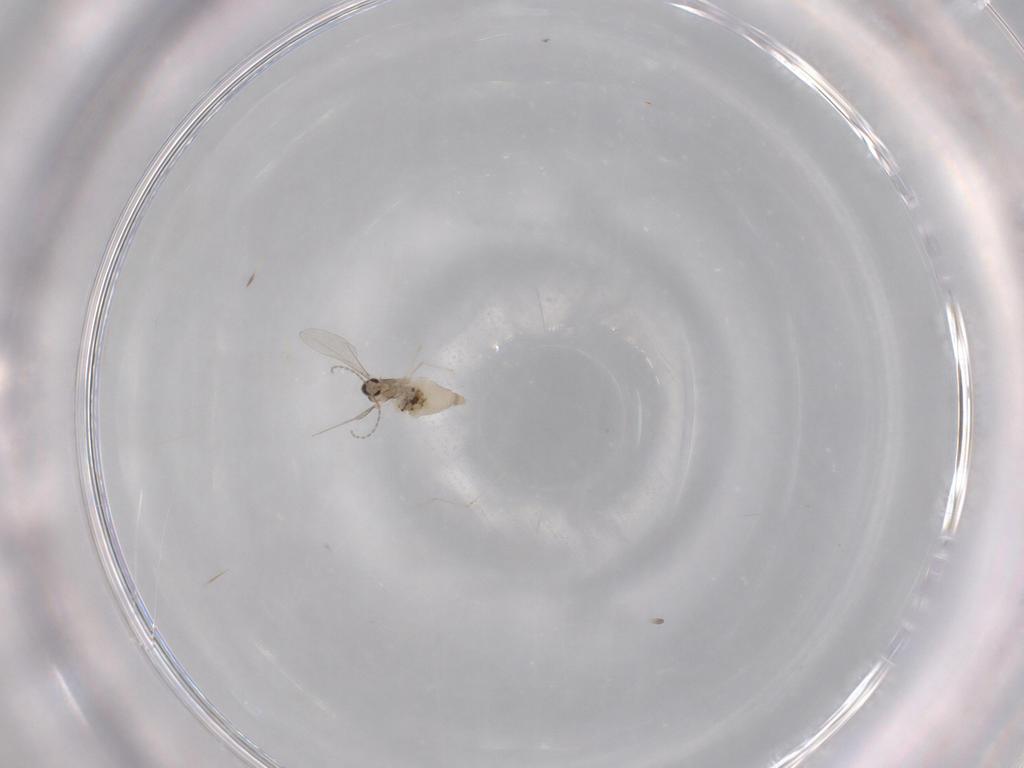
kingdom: Animalia
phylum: Arthropoda
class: Insecta
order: Diptera
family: Cecidomyiidae
